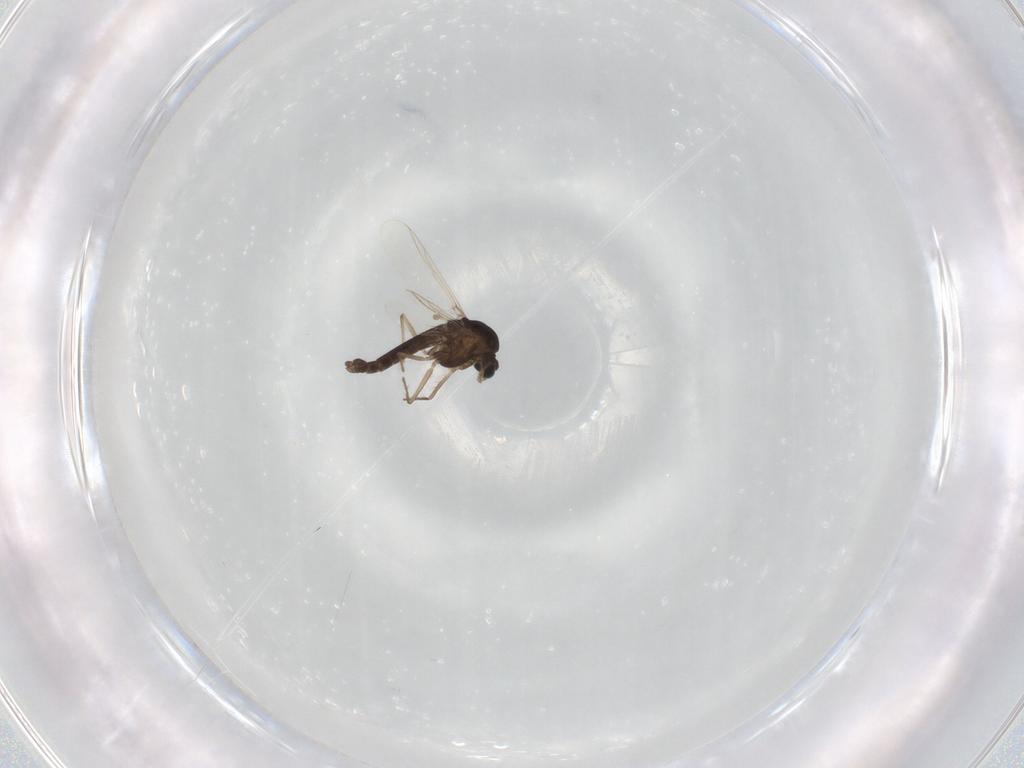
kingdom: Animalia
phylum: Arthropoda
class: Insecta
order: Diptera
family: Chironomidae
